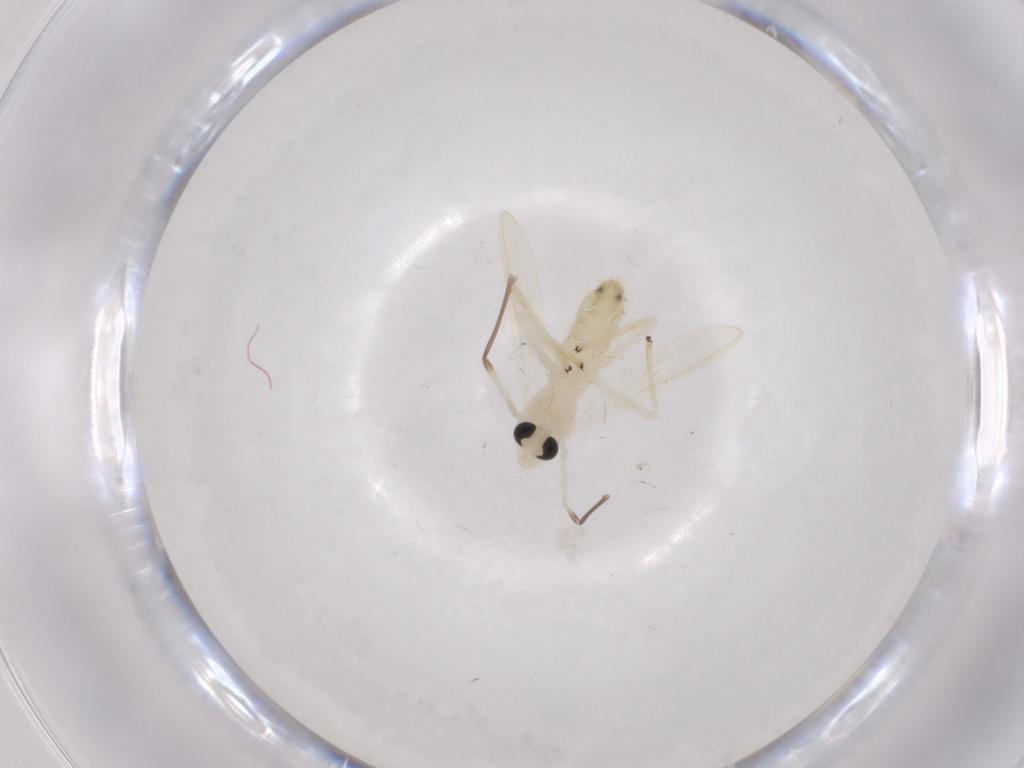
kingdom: Animalia
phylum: Arthropoda
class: Insecta
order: Diptera
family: Chironomidae
